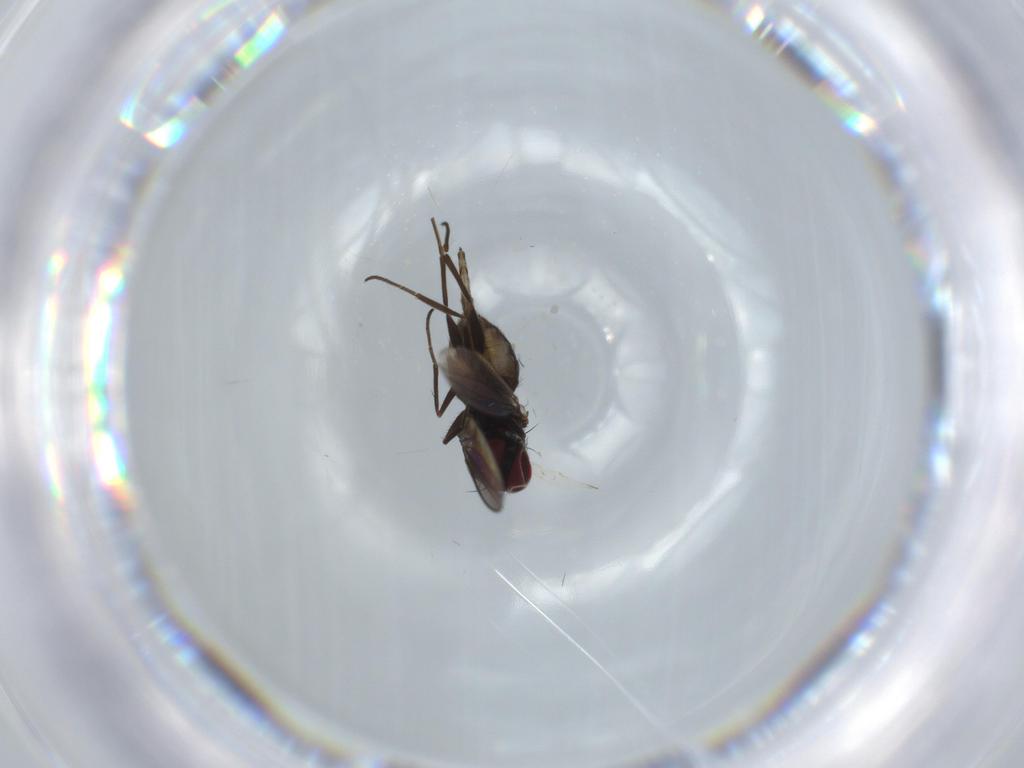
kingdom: Animalia
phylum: Arthropoda
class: Insecta
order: Diptera
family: Dolichopodidae
